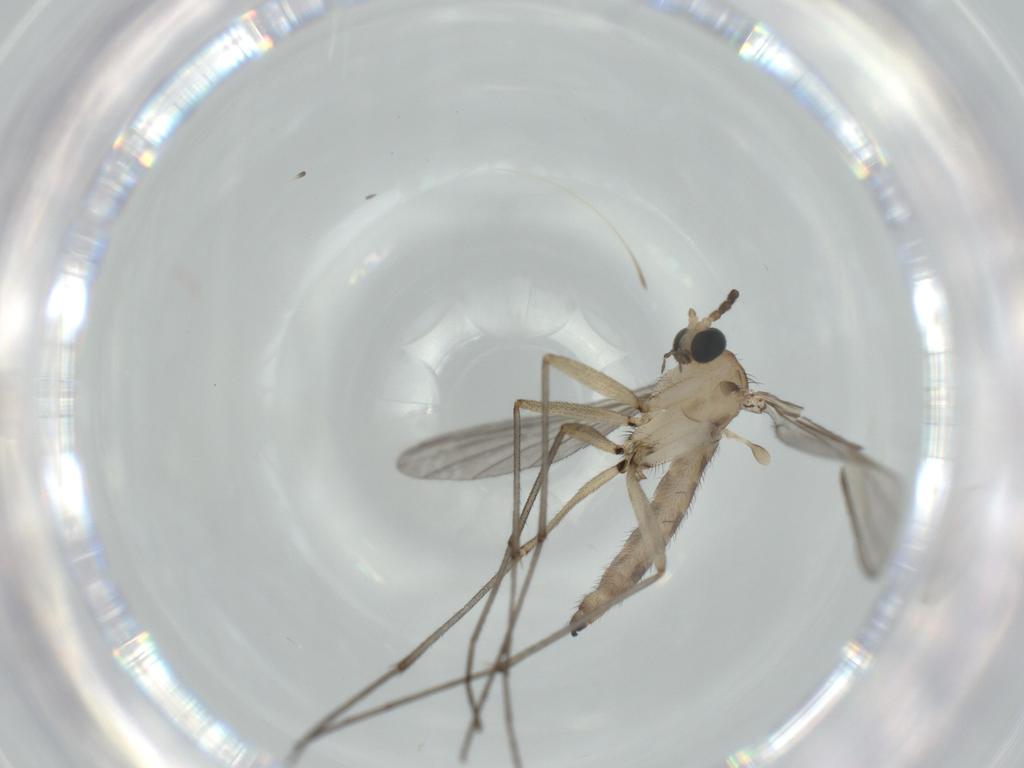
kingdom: Animalia
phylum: Arthropoda
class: Insecta
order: Diptera
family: Sciaridae
